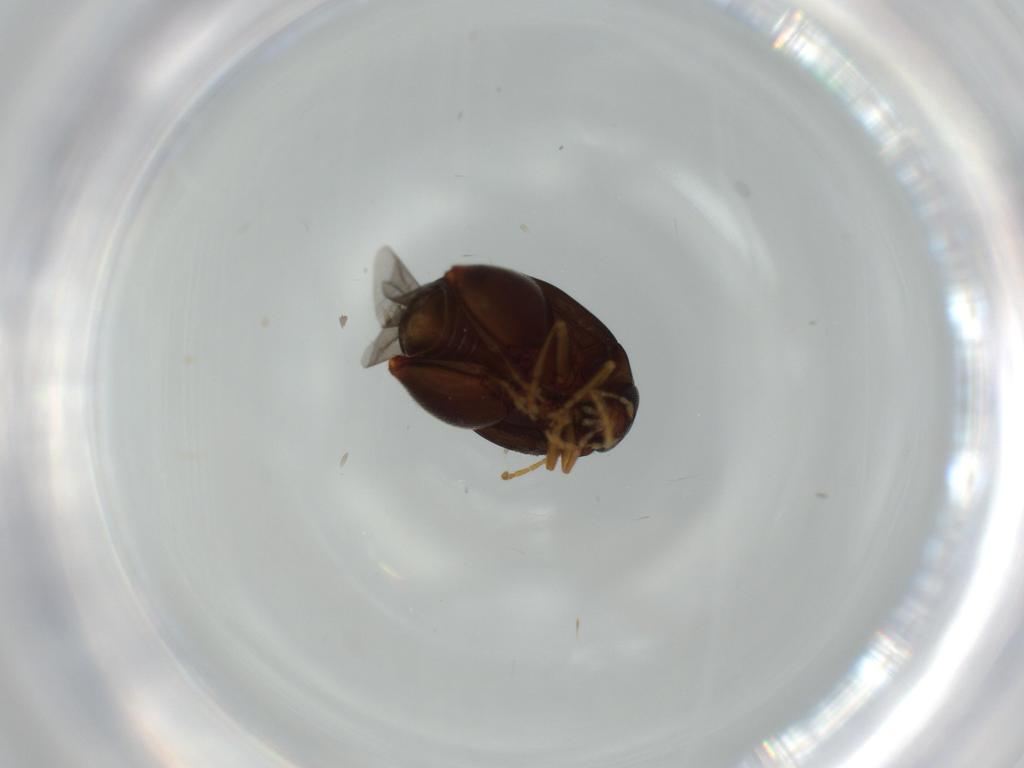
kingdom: Animalia
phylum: Arthropoda
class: Insecta
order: Coleoptera
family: Chrysomelidae
